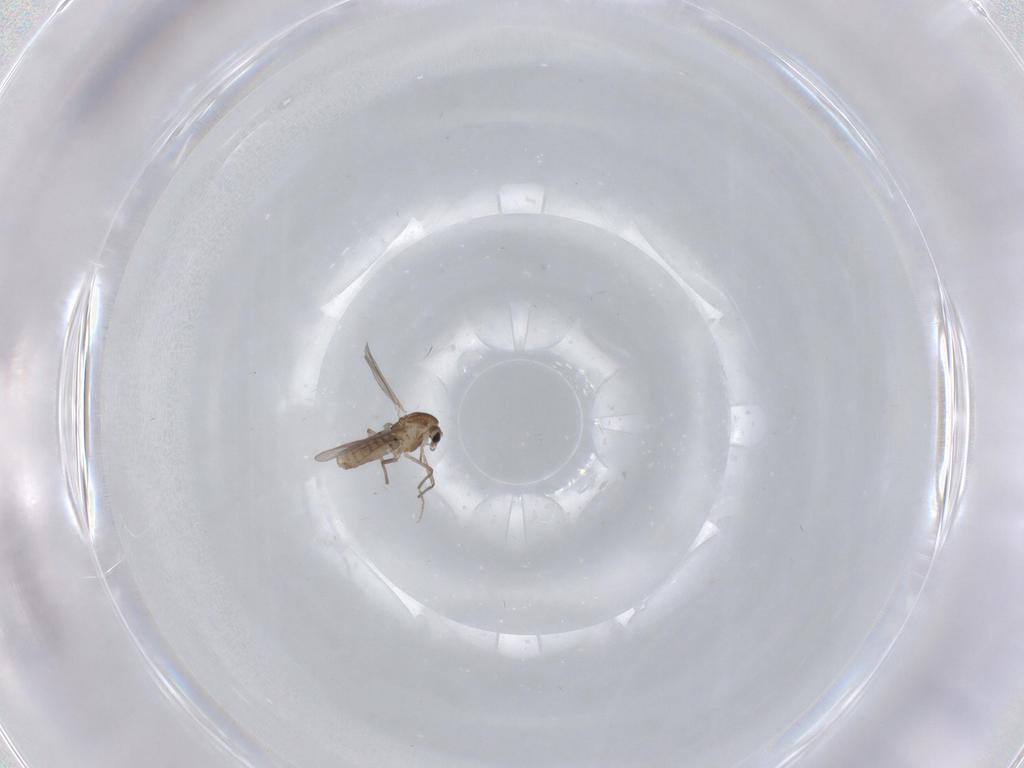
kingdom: Animalia
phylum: Arthropoda
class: Insecta
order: Diptera
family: Chironomidae
